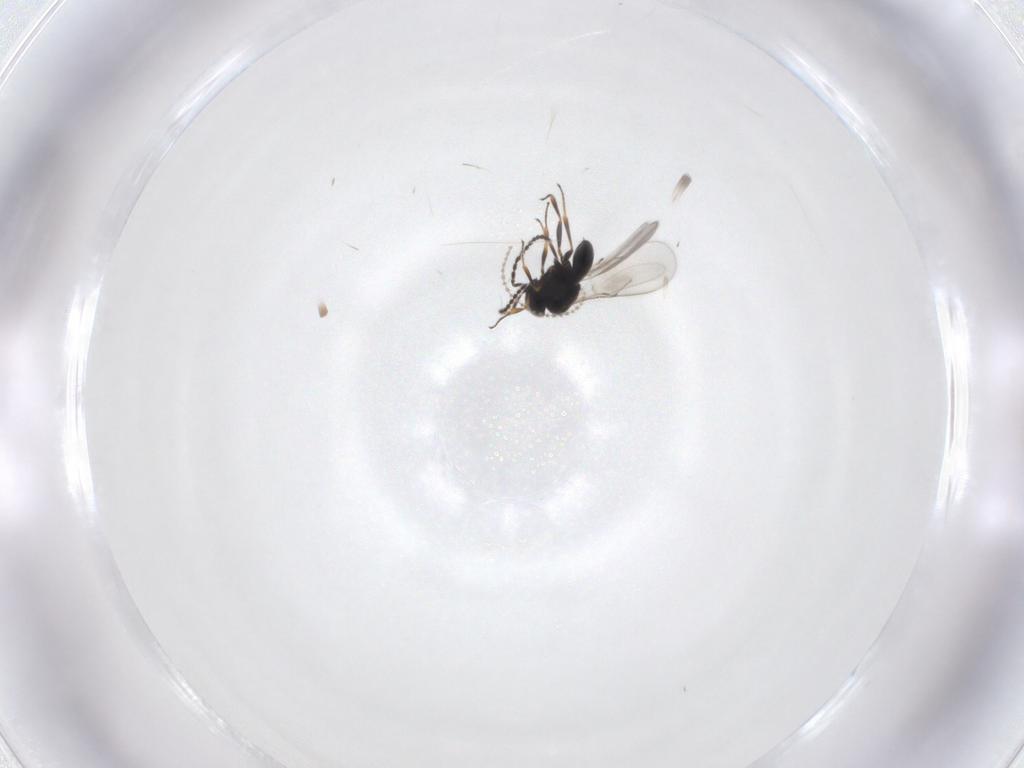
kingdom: Animalia
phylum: Arthropoda
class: Insecta
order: Hymenoptera
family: Scelionidae
